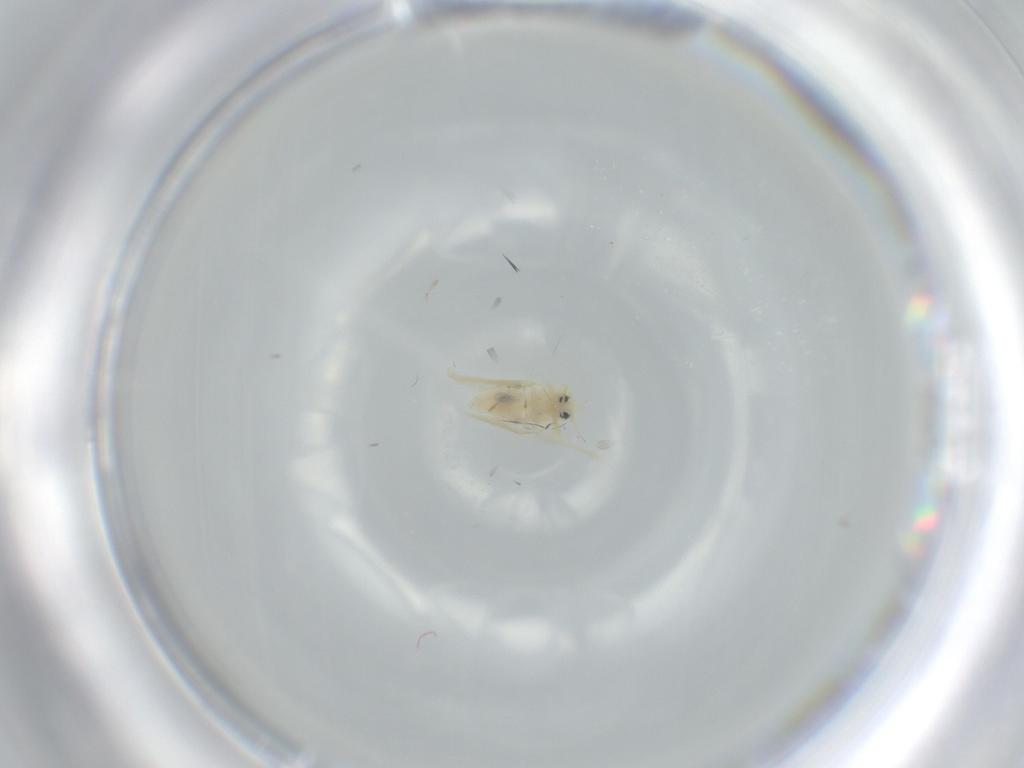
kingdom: Animalia
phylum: Arthropoda
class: Insecta
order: Hemiptera
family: Aleyrodidae
